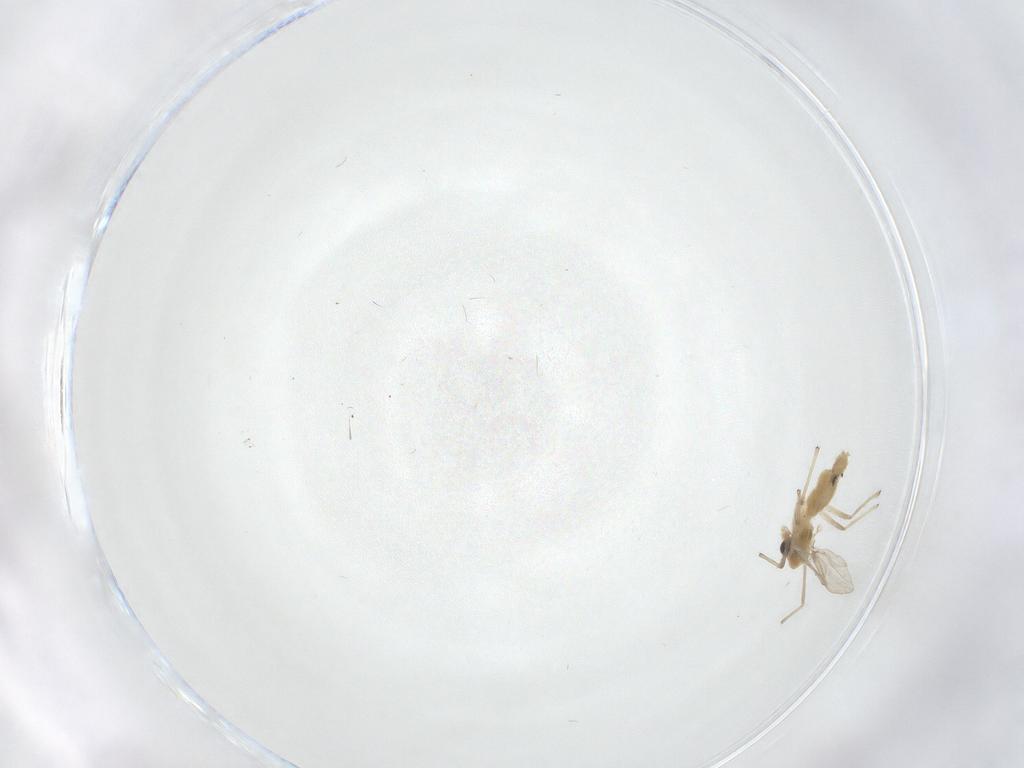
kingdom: Animalia
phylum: Arthropoda
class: Insecta
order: Diptera
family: Chironomidae
